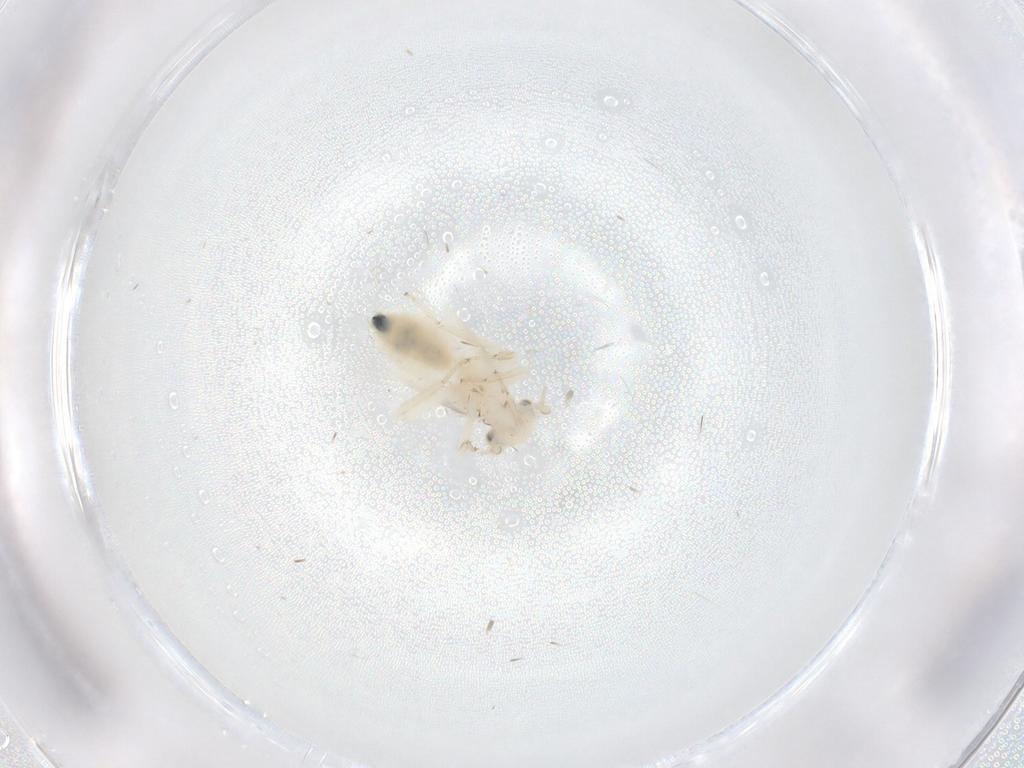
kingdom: Animalia
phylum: Arthropoda
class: Insecta
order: Psocodea
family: Lepidopsocidae
